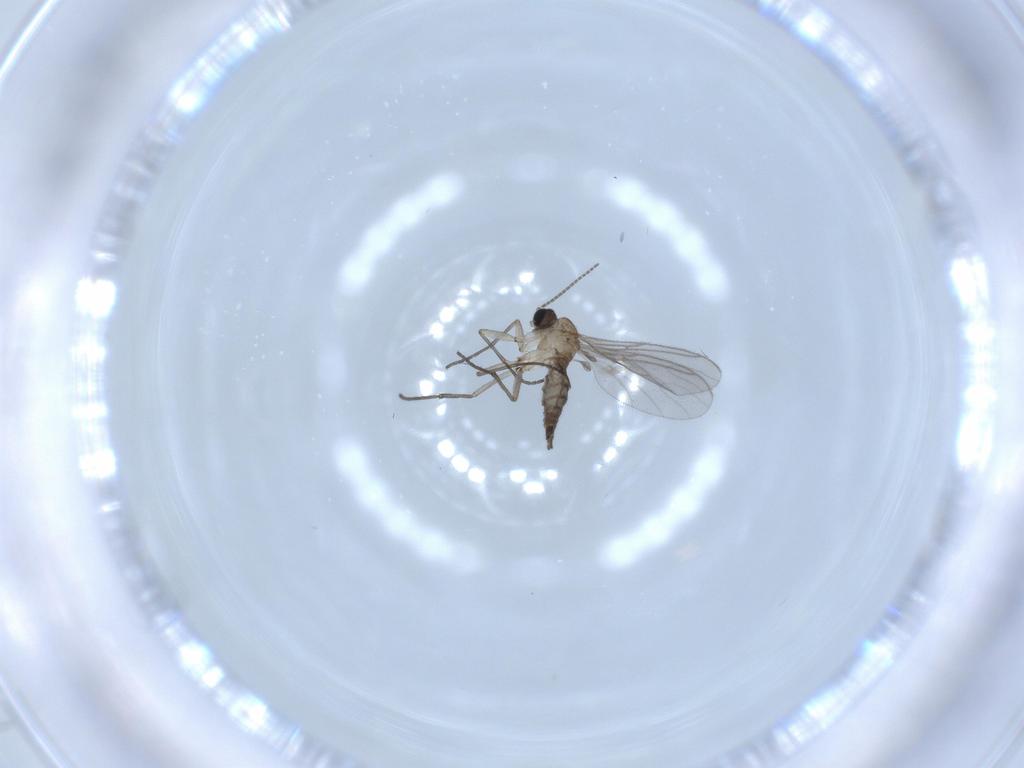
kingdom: Animalia
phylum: Arthropoda
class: Insecta
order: Diptera
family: Sciaridae
